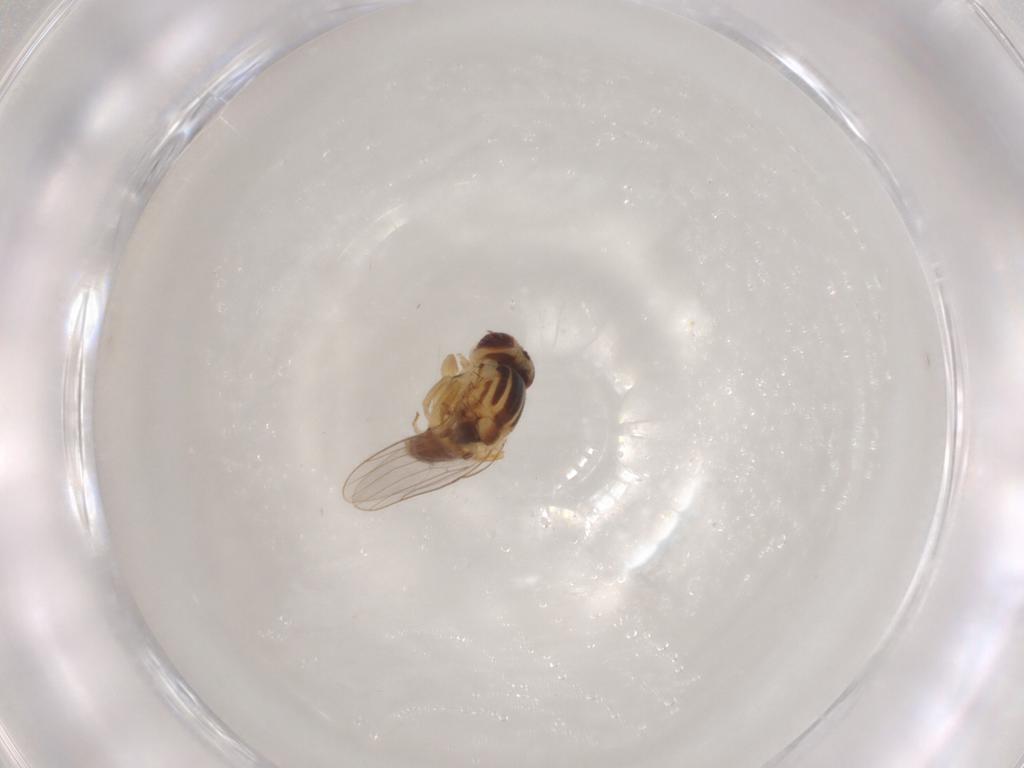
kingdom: Animalia
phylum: Arthropoda
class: Insecta
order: Diptera
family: Chloropidae
